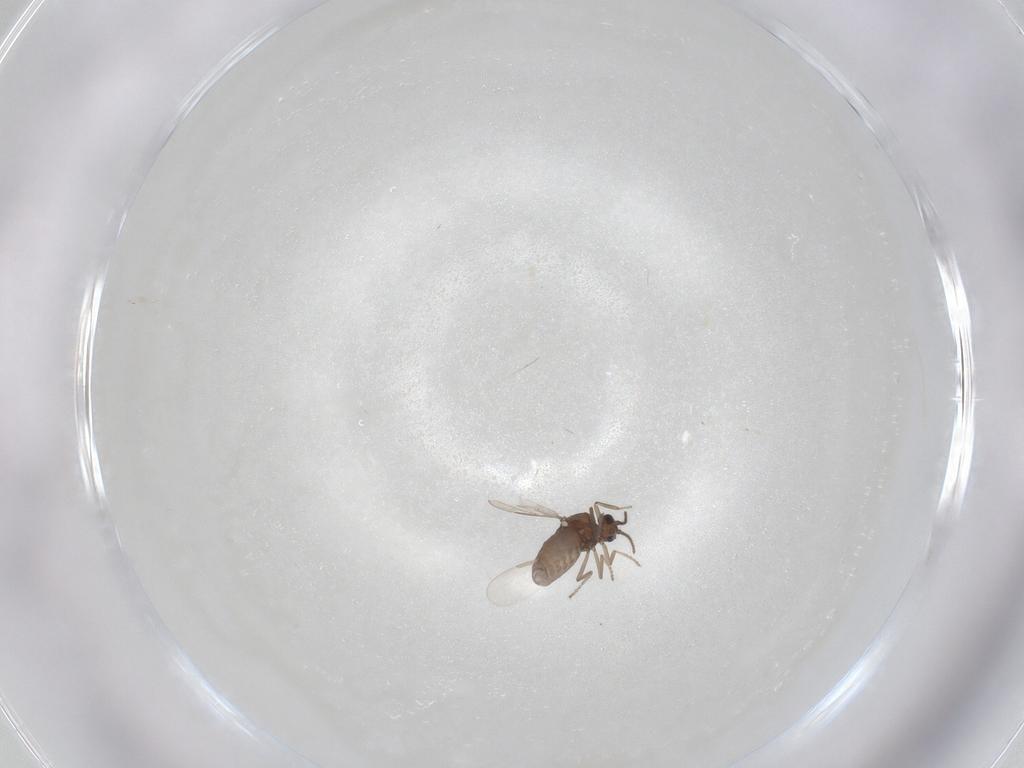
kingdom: Animalia
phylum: Arthropoda
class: Insecta
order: Diptera
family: Ceratopogonidae
